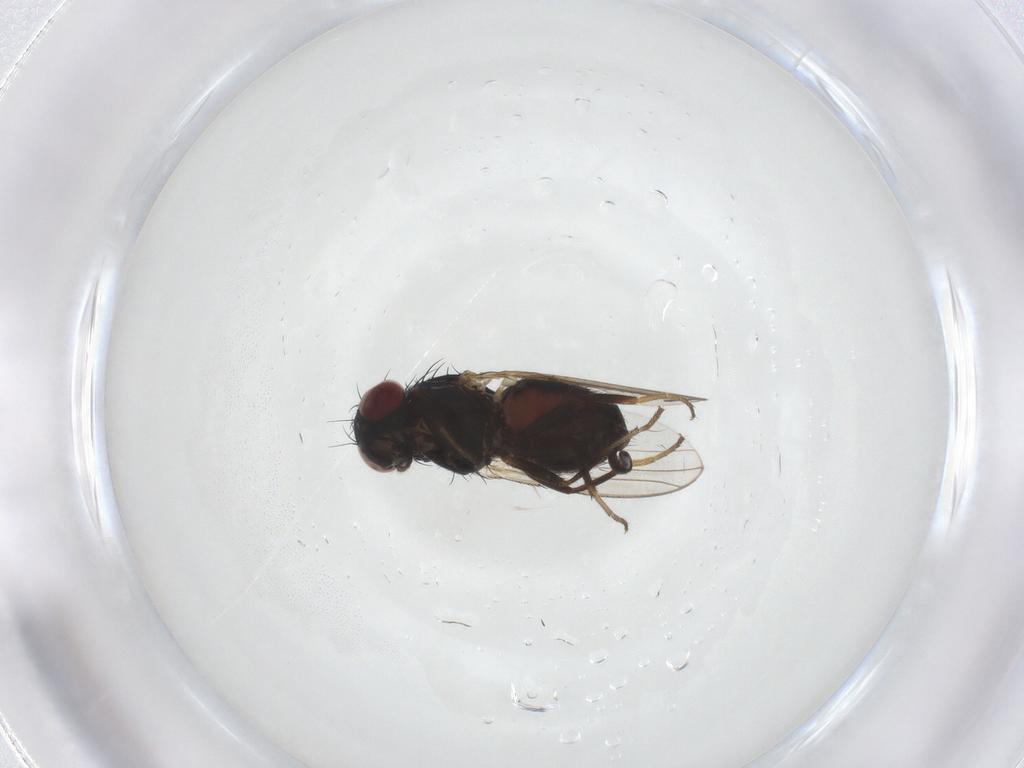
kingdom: Animalia
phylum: Arthropoda
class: Insecta
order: Diptera
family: Carnidae
